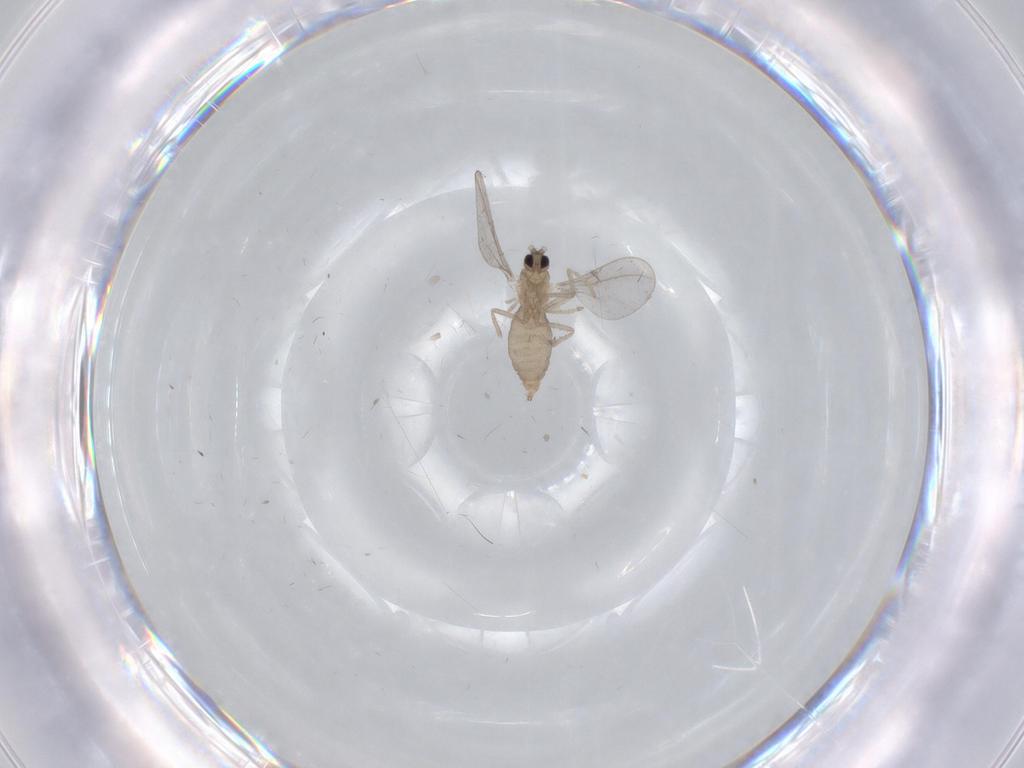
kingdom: Animalia
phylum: Arthropoda
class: Insecta
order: Diptera
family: Cecidomyiidae
